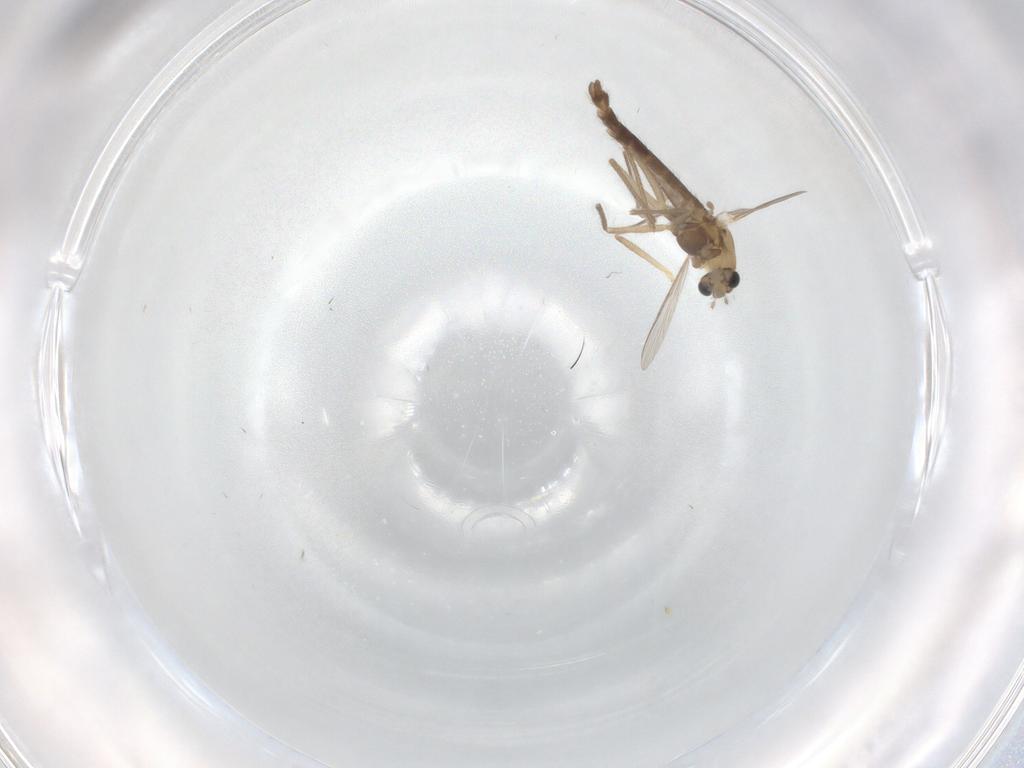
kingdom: Animalia
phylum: Arthropoda
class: Insecta
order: Diptera
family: Chironomidae
